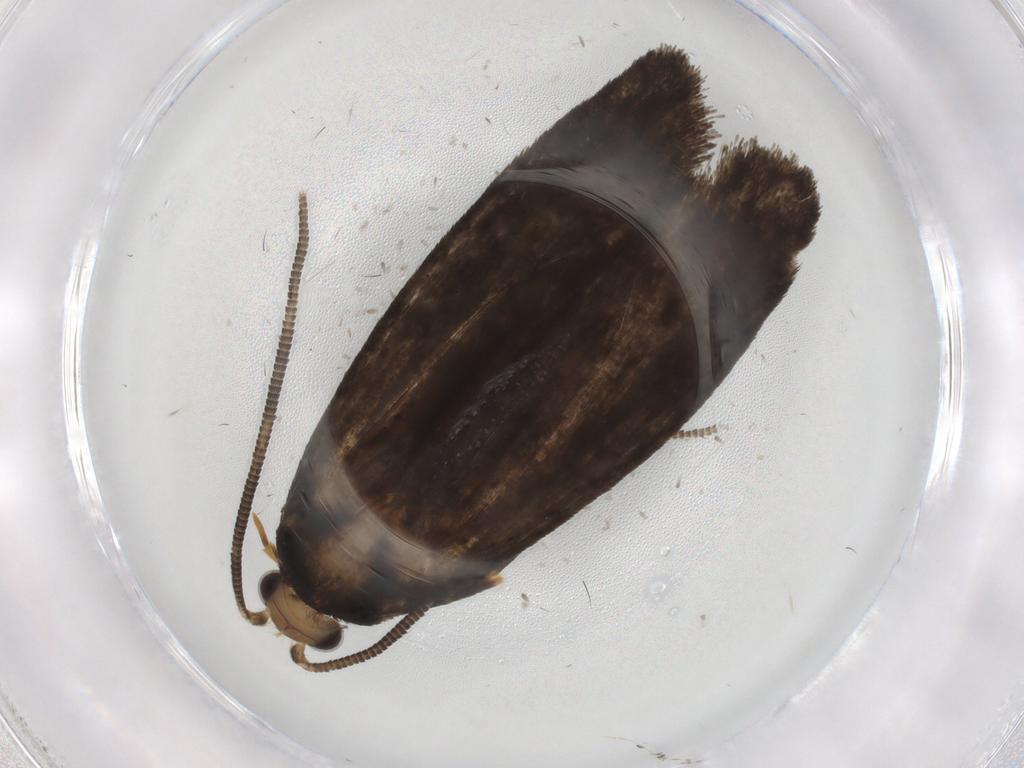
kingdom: Animalia
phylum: Arthropoda
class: Insecta
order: Lepidoptera
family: Tineidae
